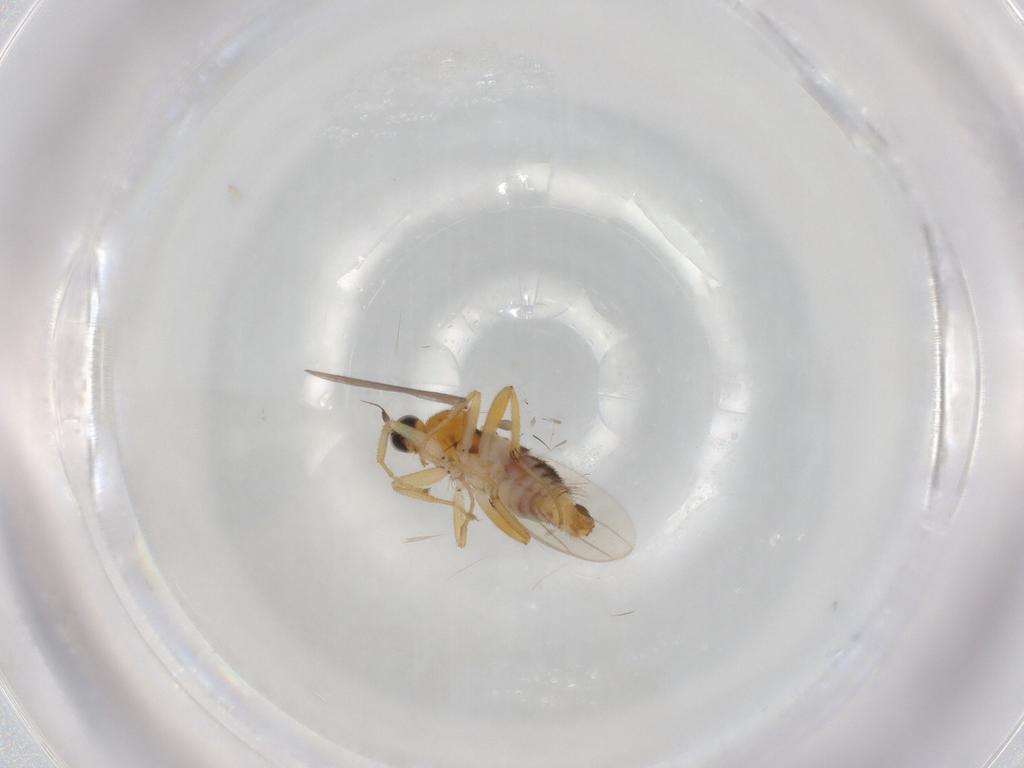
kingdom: Animalia
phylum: Arthropoda
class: Insecta
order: Diptera
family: Hybotidae
